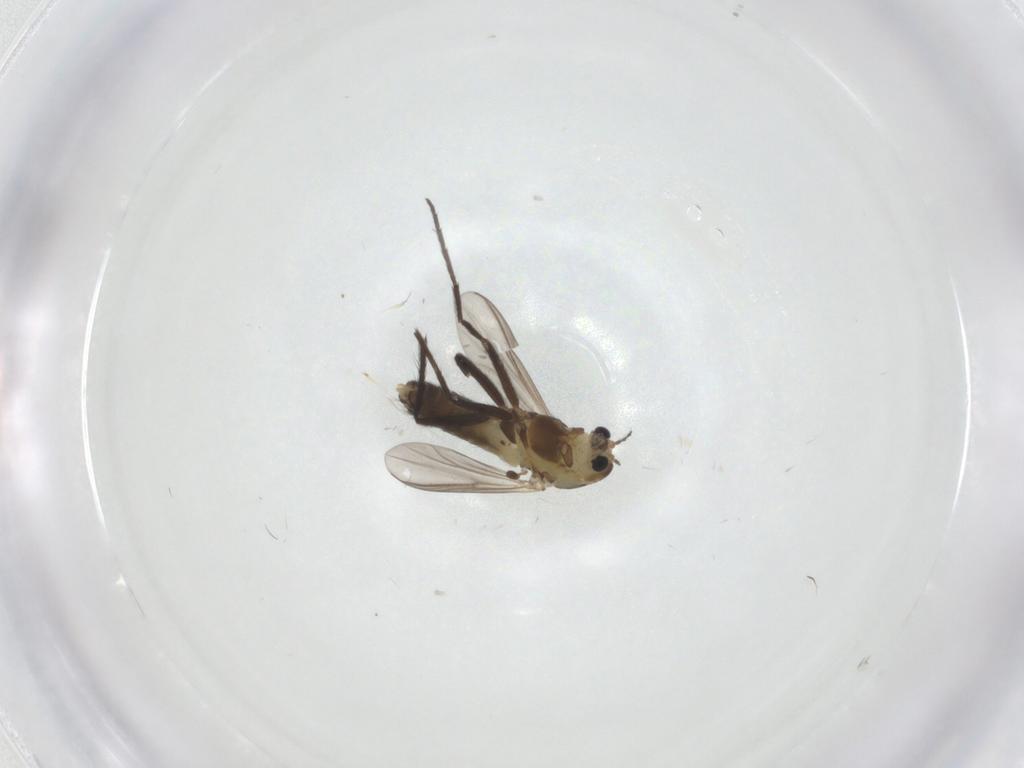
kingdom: Animalia
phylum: Arthropoda
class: Insecta
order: Diptera
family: Chironomidae
